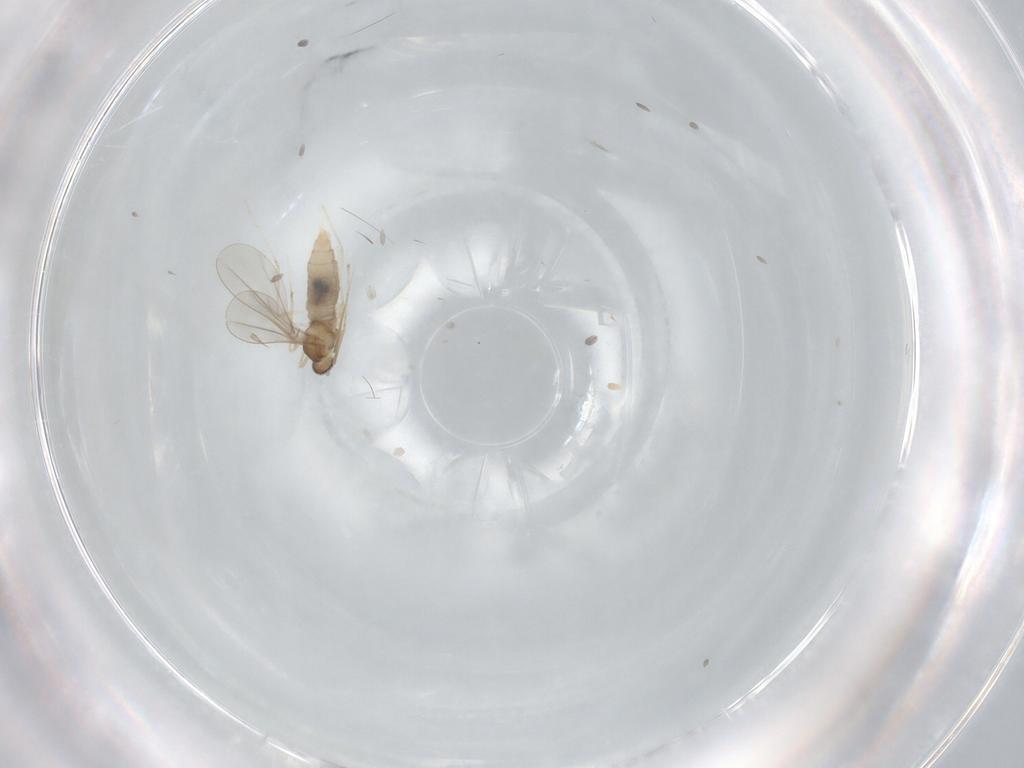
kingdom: Animalia
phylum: Arthropoda
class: Insecta
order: Diptera
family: Cecidomyiidae
